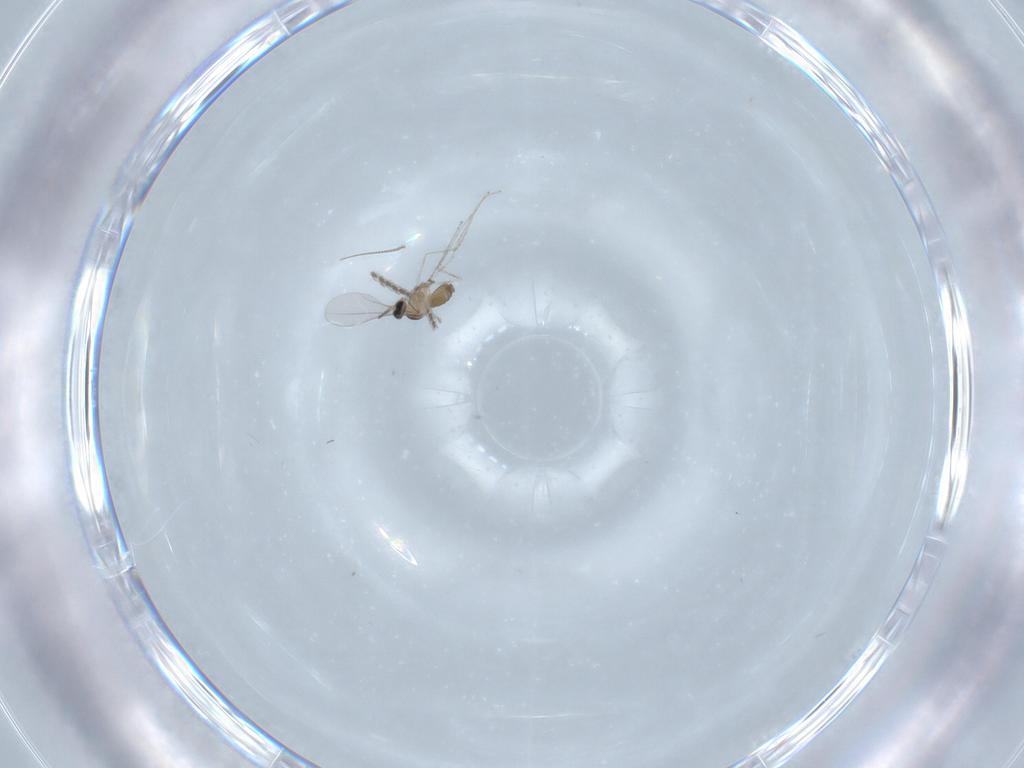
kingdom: Animalia
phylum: Arthropoda
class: Insecta
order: Diptera
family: Cecidomyiidae
